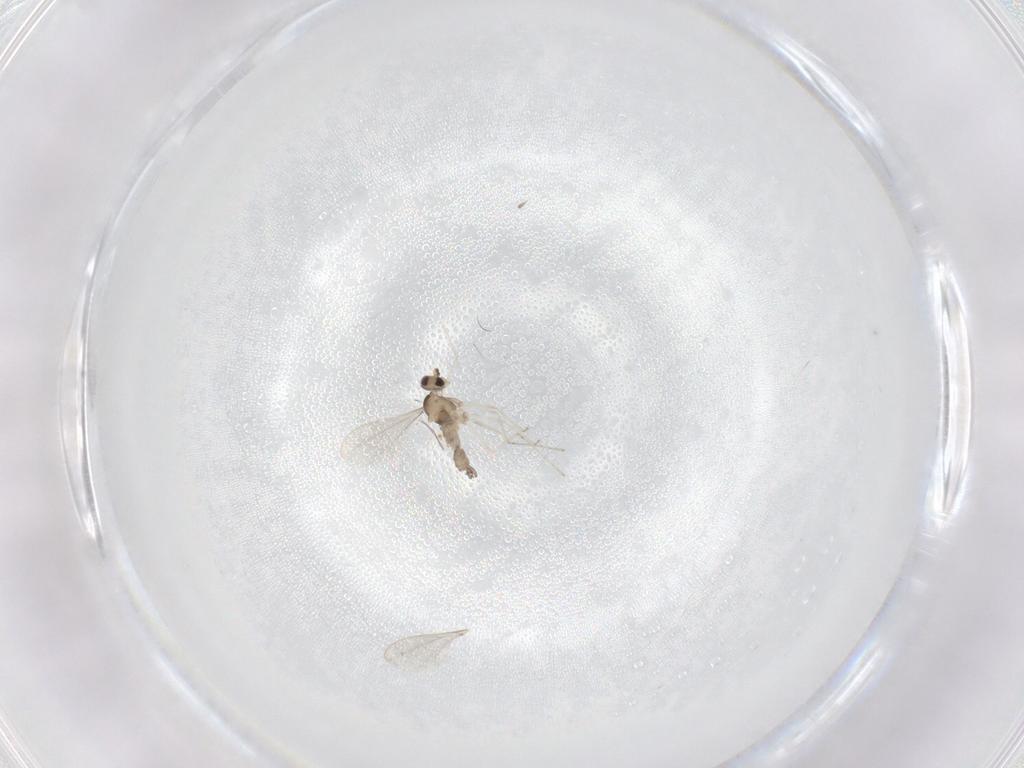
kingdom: Animalia
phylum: Arthropoda
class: Insecta
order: Diptera
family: Cecidomyiidae
